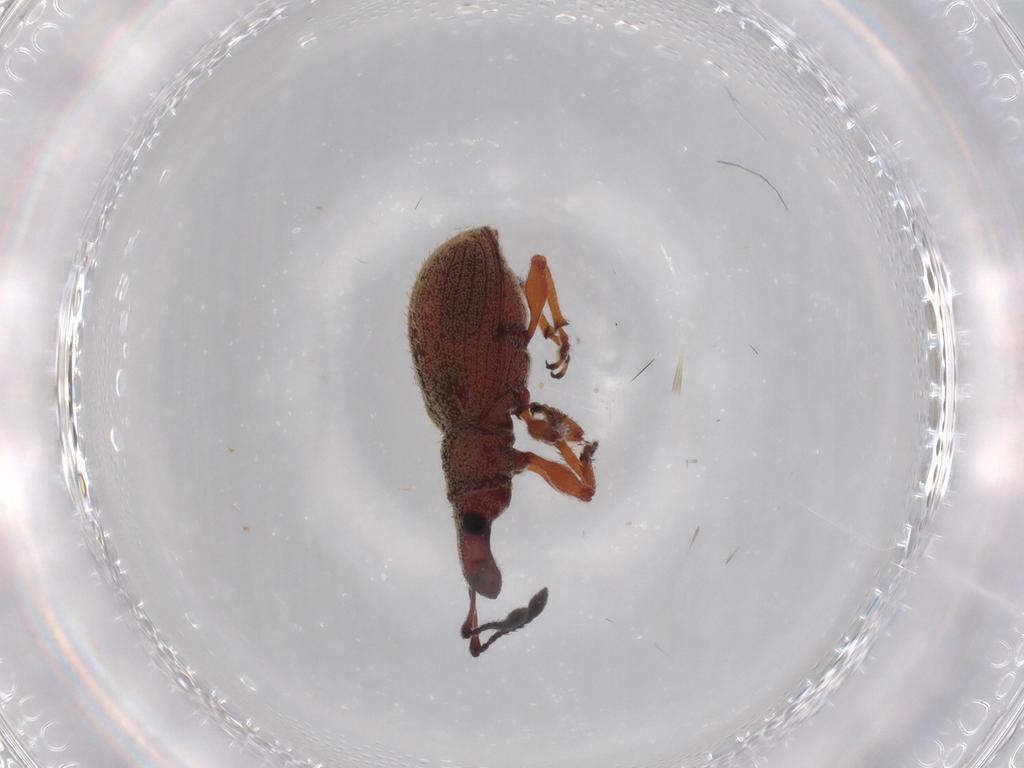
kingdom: Animalia
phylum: Arthropoda
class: Insecta
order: Coleoptera
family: Curculionidae
